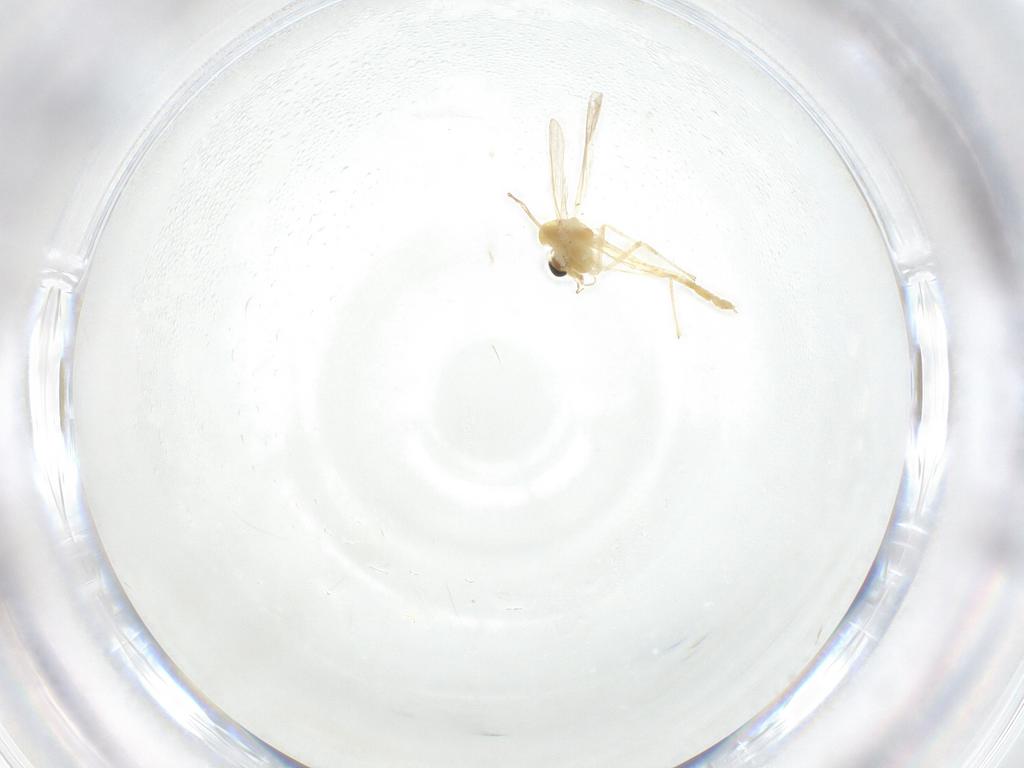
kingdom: Animalia
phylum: Arthropoda
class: Insecta
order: Diptera
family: Chironomidae
